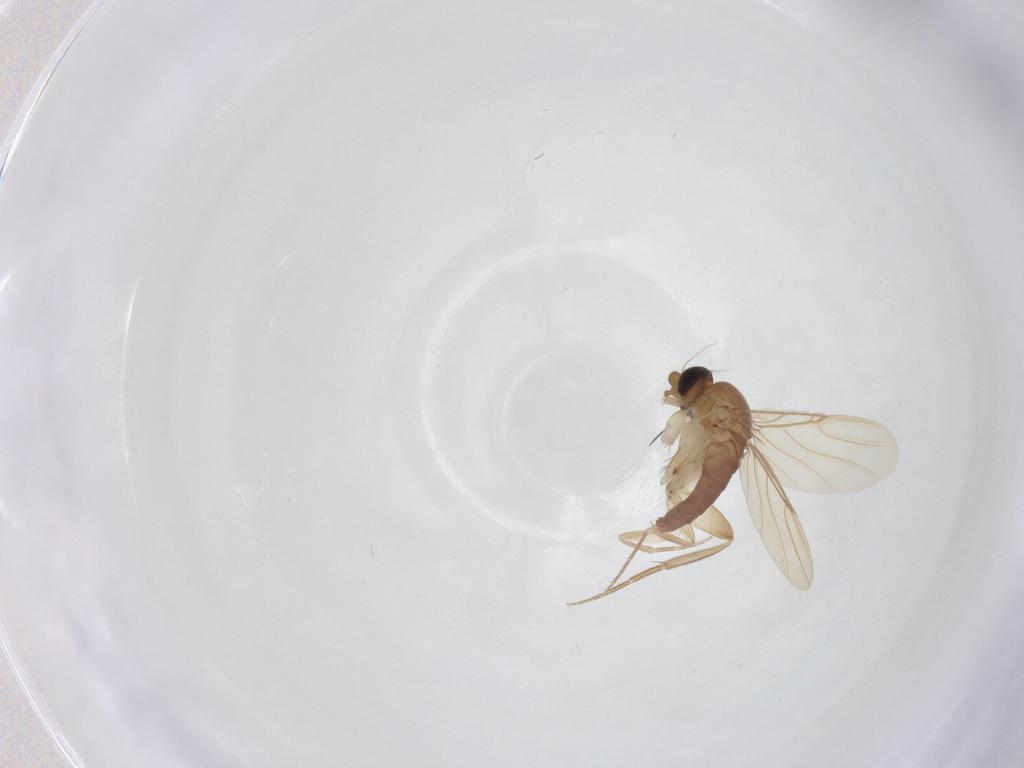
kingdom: Animalia
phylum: Arthropoda
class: Insecta
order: Diptera
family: Phoridae
